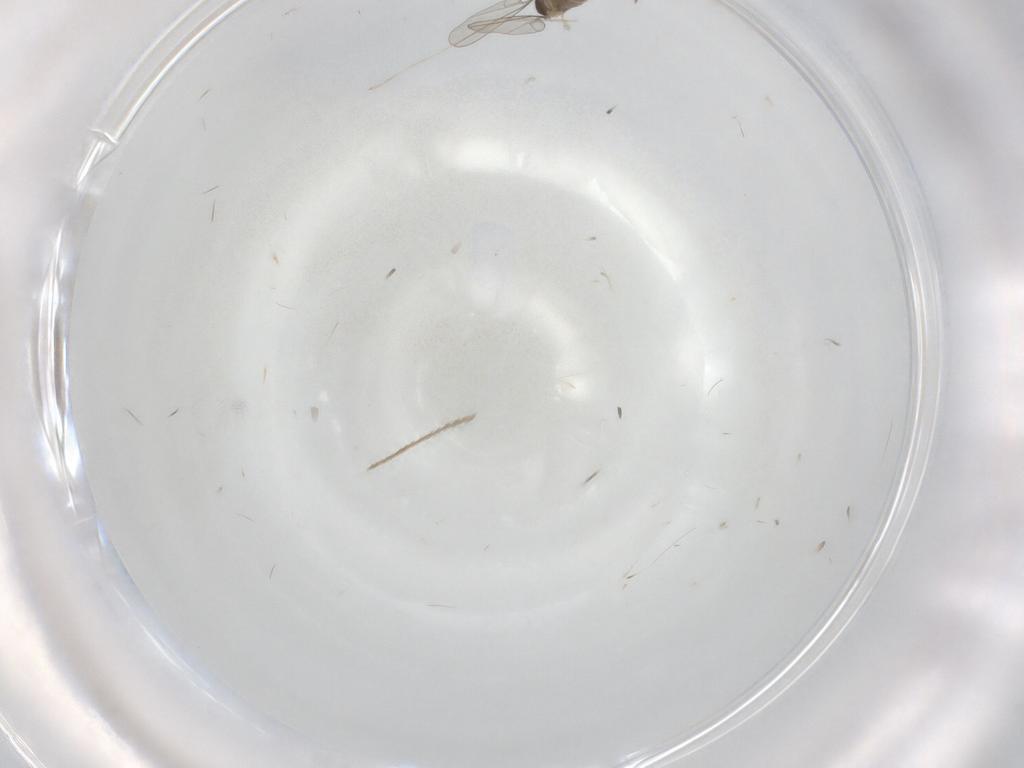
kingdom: Animalia
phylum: Arthropoda
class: Insecta
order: Diptera
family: Cecidomyiidae
